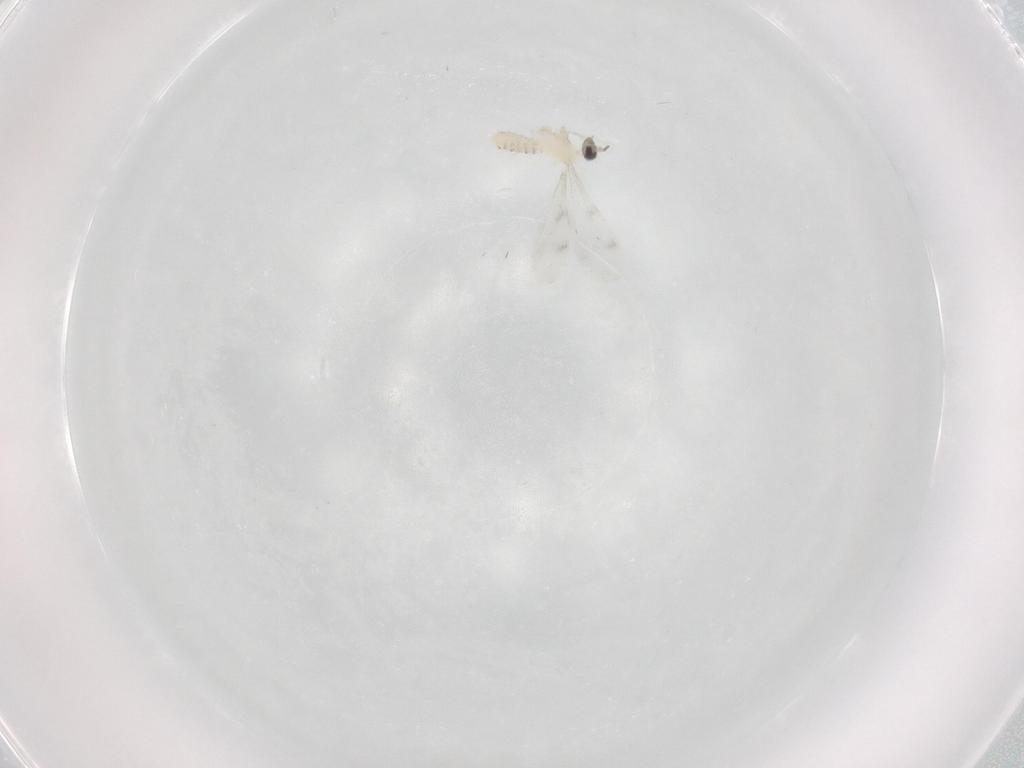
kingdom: Animalia
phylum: Arthropoda
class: Insecta
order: Diptera
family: Cecidomyiidae
